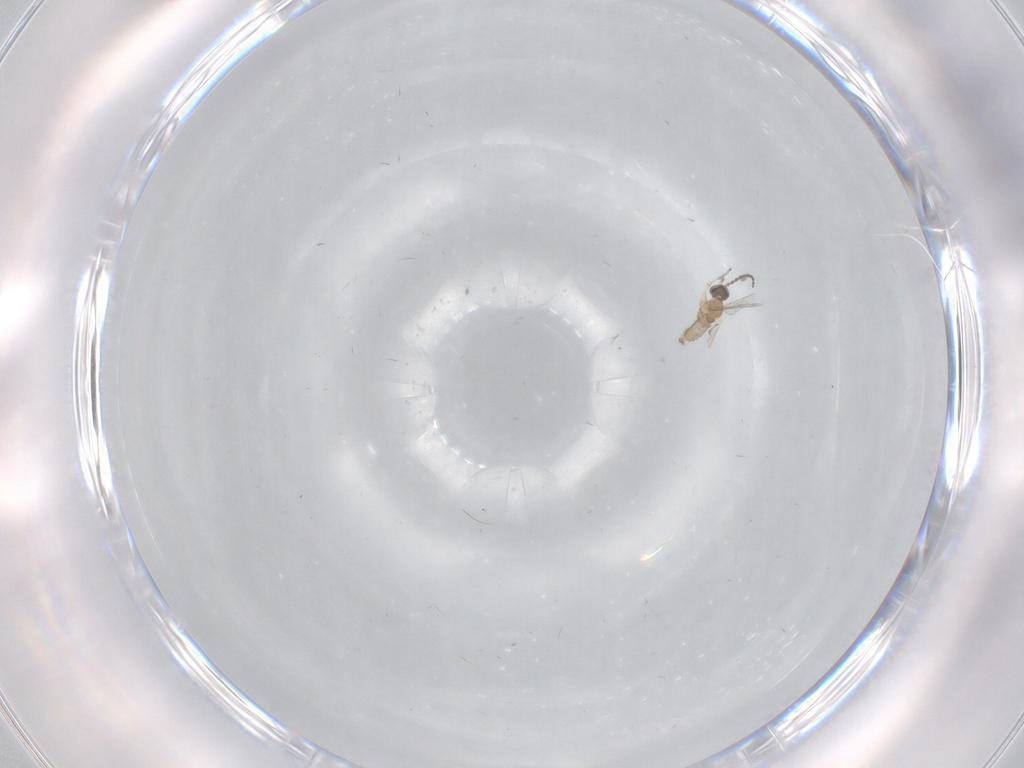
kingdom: Animalia
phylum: Arthropoda
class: Insecta
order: Diptera
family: Cecidomyiidae
